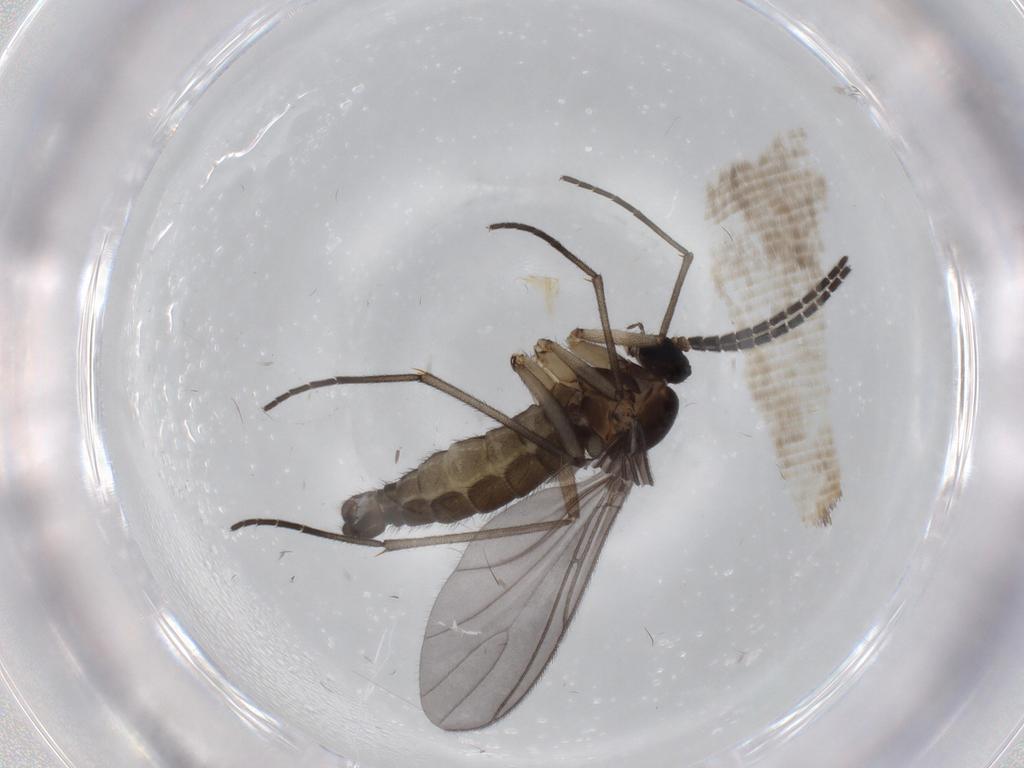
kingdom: Animalia
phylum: Arthropoda
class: Insecta
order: Diptera
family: Sciaridae
